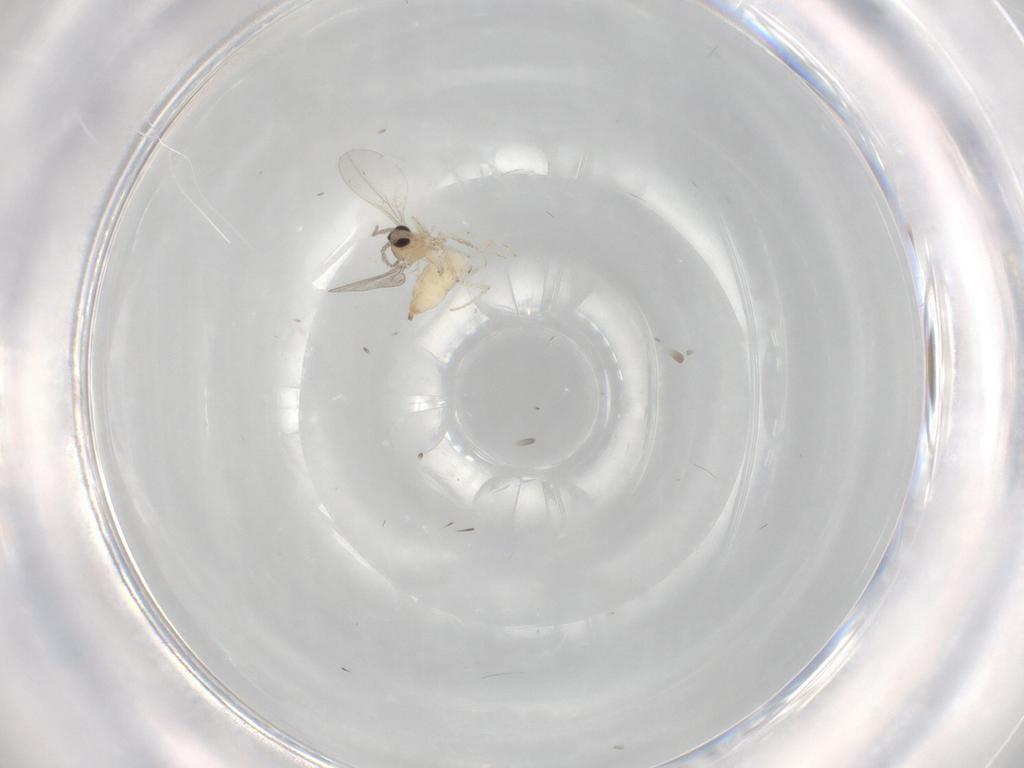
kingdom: Animalia
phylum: Arthropoda
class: Insecta
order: Diptera
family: Cecidomyiidae
